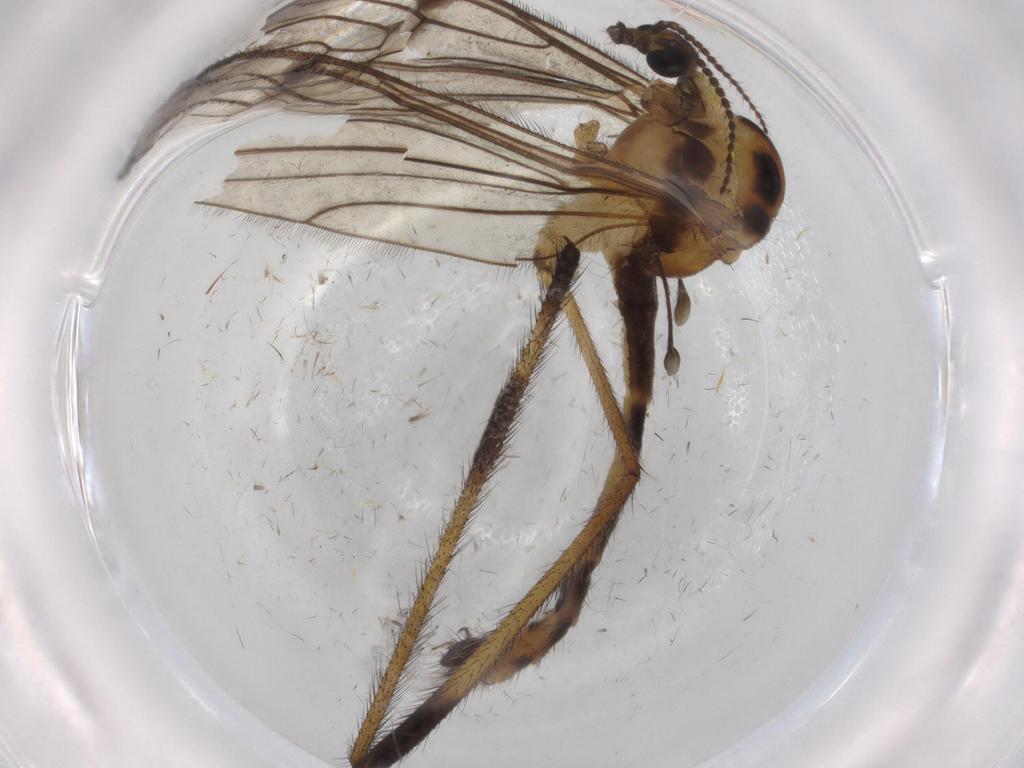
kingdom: Animalia
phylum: Arthropoda
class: Insecta
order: Diptera
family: Limoniidae
